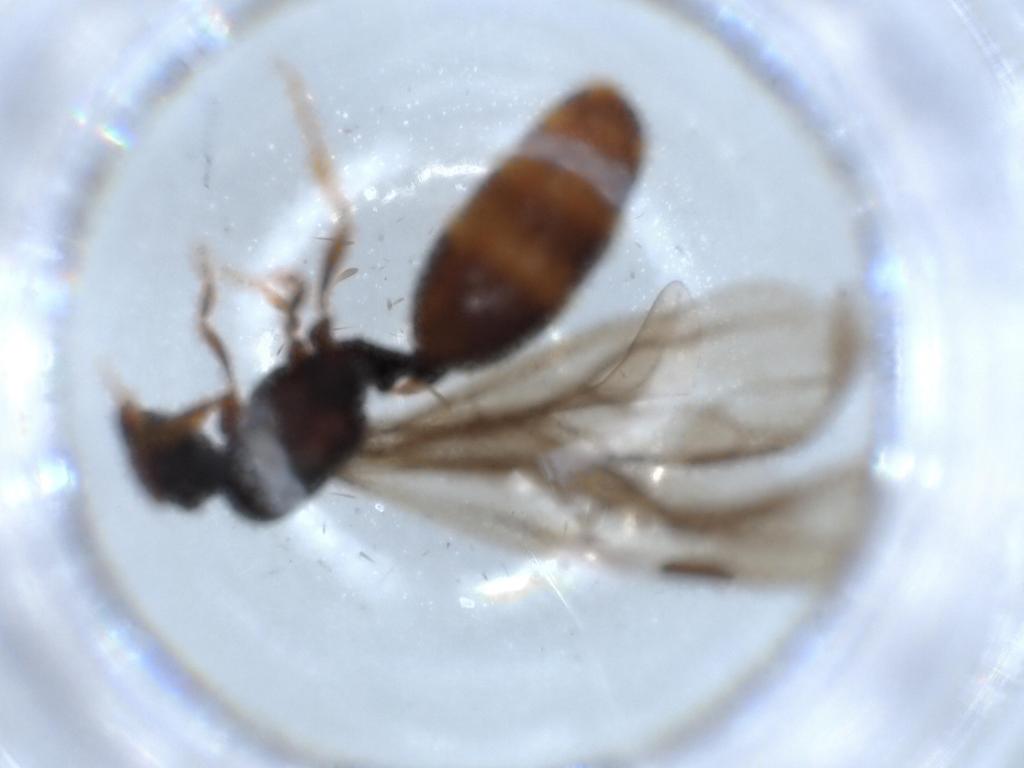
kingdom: Animalia
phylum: Arthropoda
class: Insecta
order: Hymenoptera
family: Formicidae
